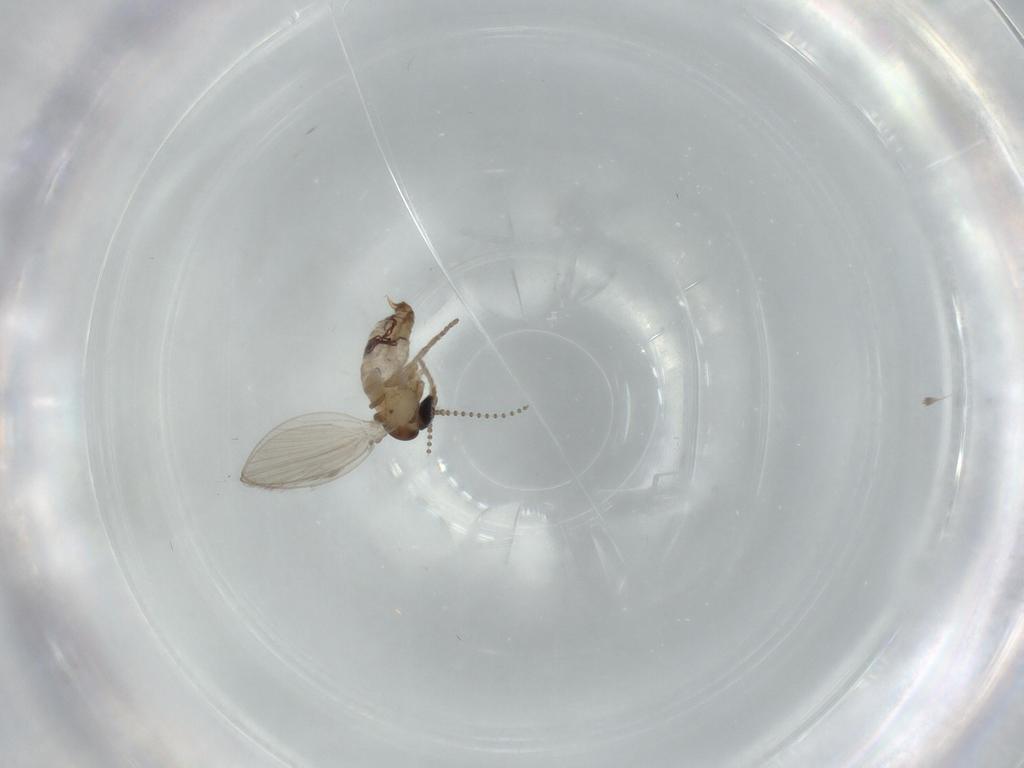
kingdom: Animalia
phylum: Arthropoda
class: Insecta
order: Diptera
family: Psychodidae
